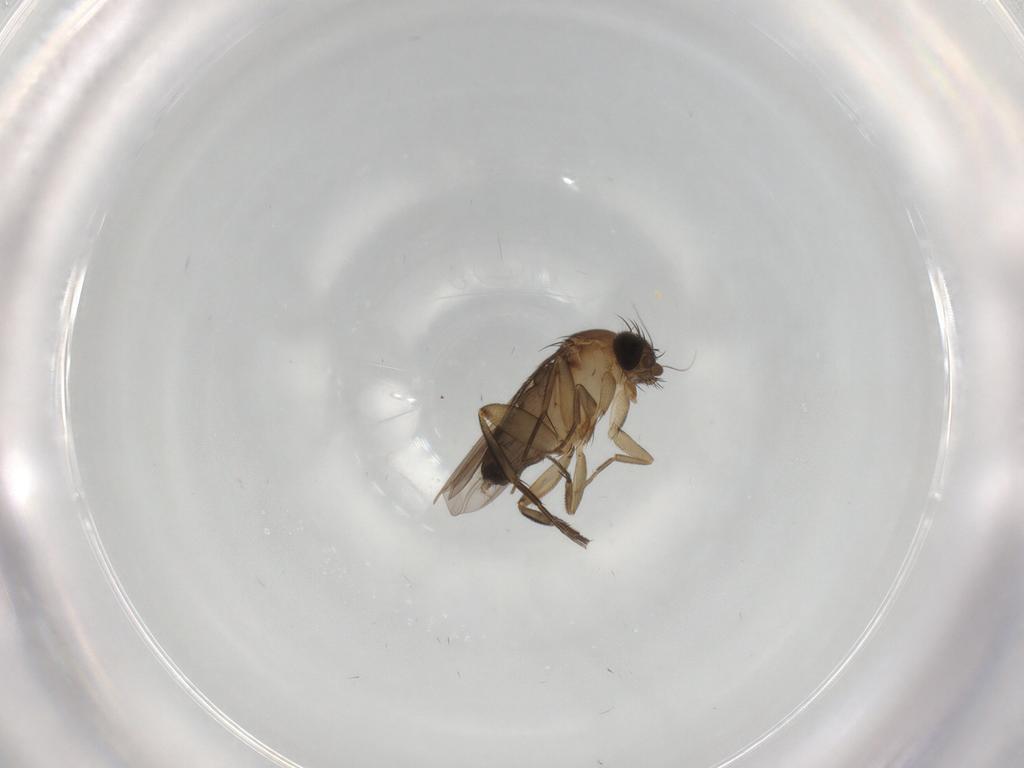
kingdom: Animalia
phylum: Arthropoda
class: Insecta
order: Diptera
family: Phoridae
